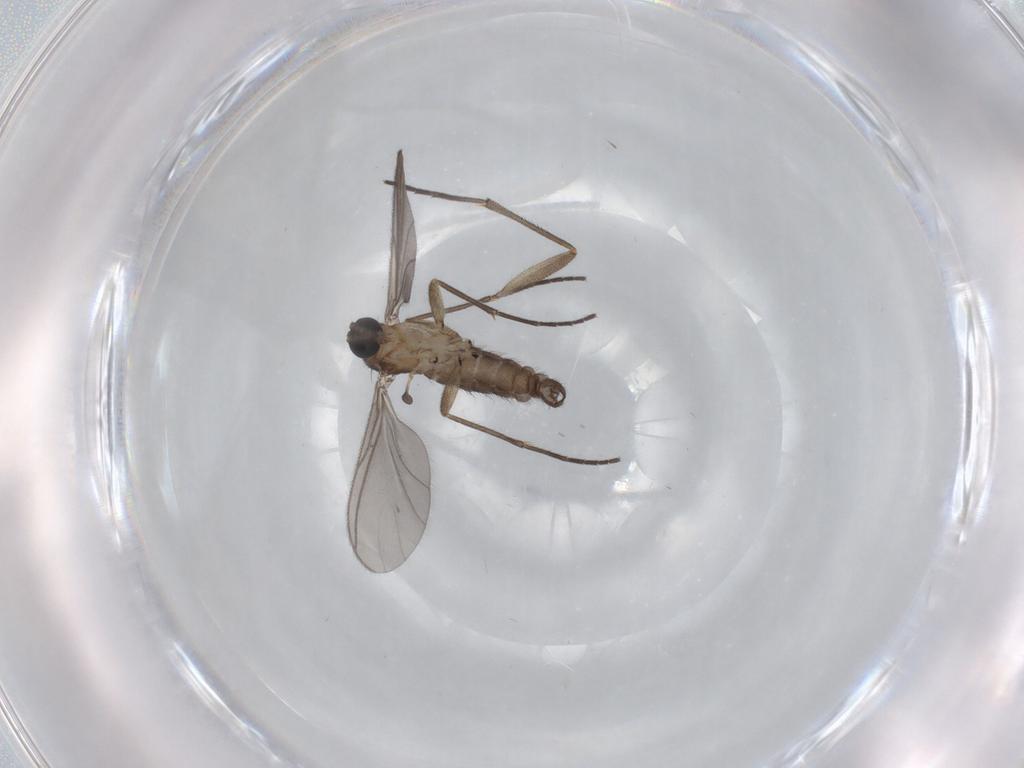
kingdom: Animalia
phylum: Arthropoda
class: Insecta
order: Diptera
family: Sciaridae
